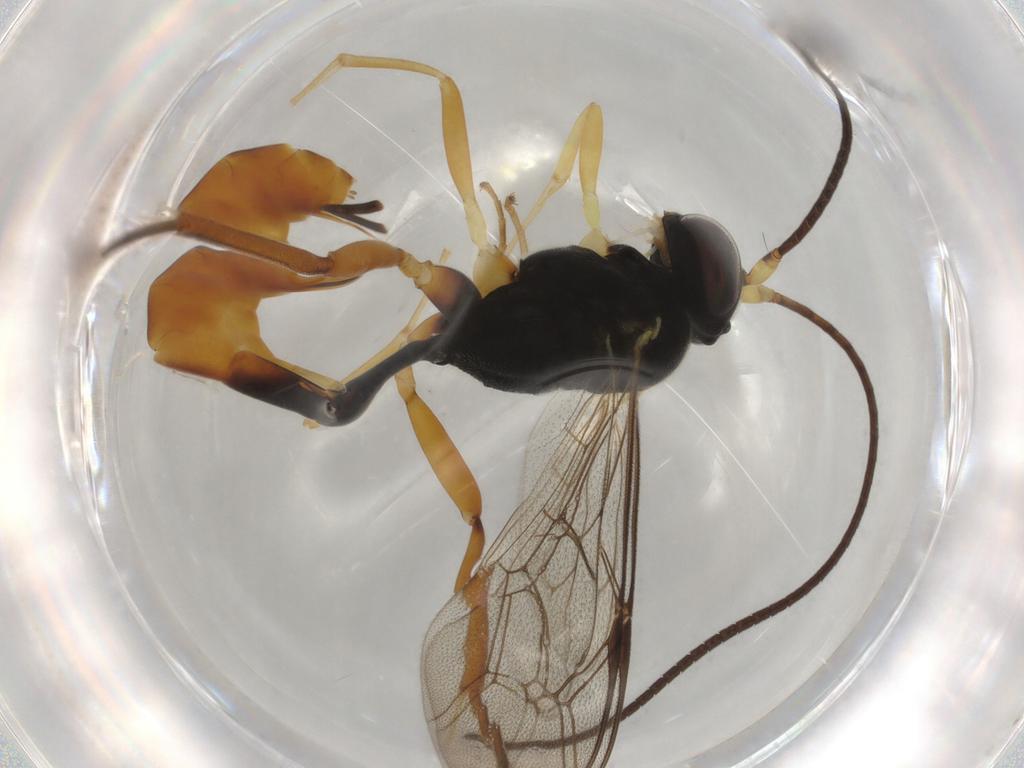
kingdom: Animalia
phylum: Arthropoda
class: Insecta
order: Hymenoptera
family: Ichneumonidae
